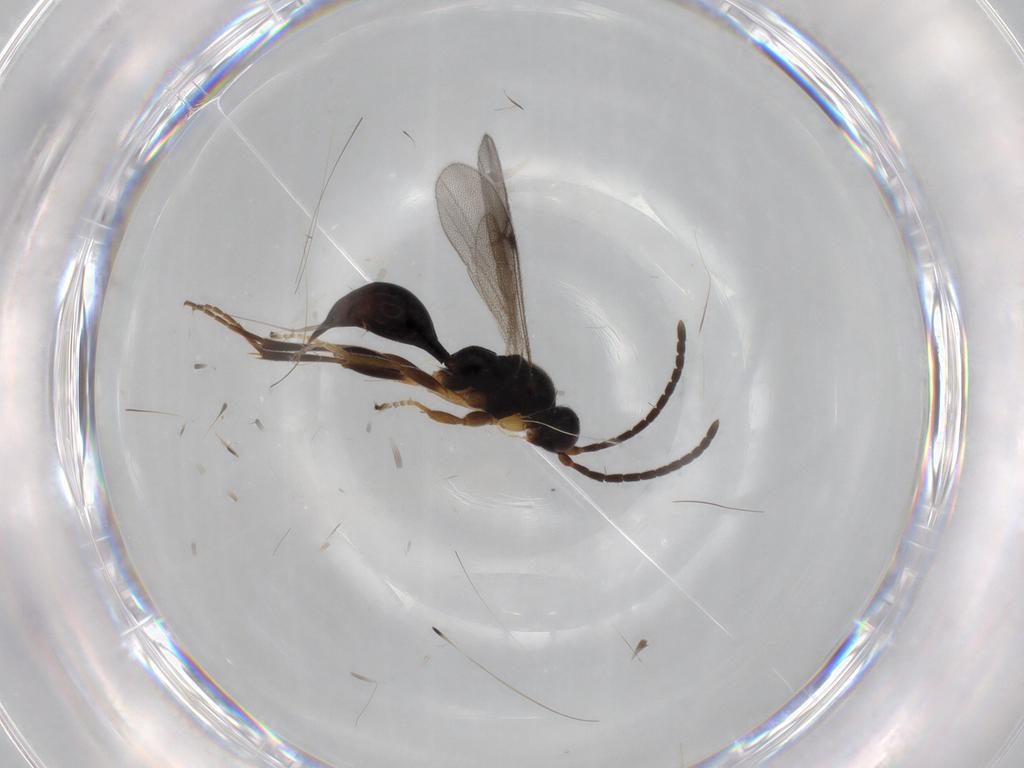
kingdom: Animalia
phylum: Arthropoda
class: Insecta
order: Hymenoptera
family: Proctotrupidae
